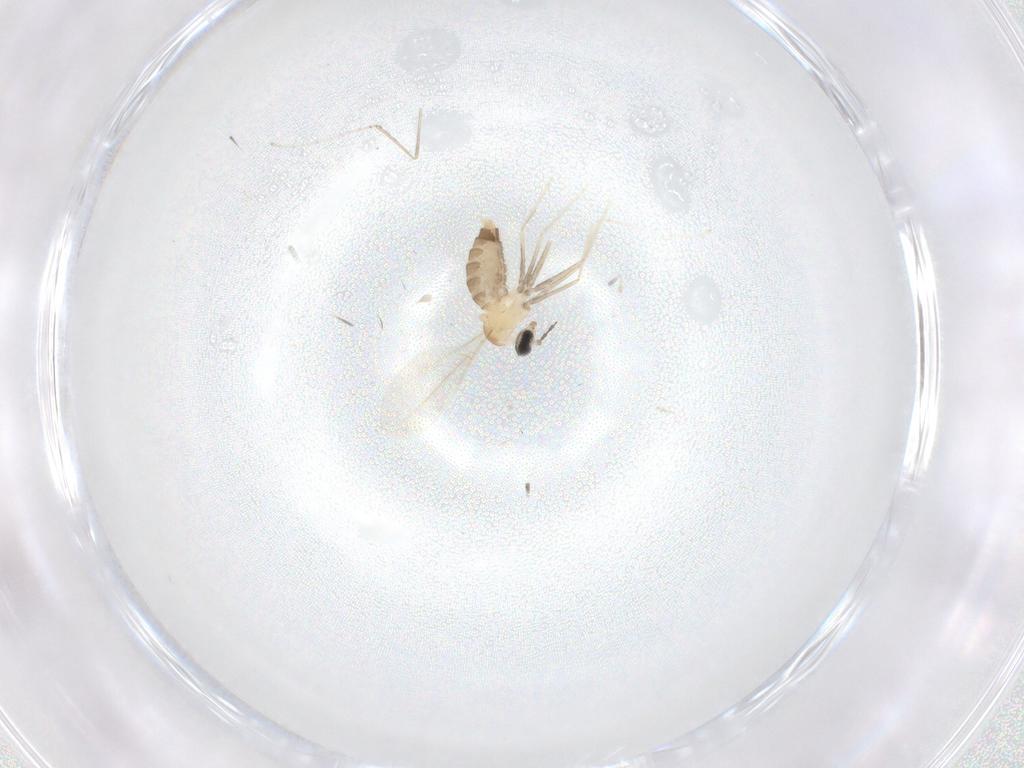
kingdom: Animalia
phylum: Arthropoda
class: Insecta
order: Diptera
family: Cecidomyiidae
